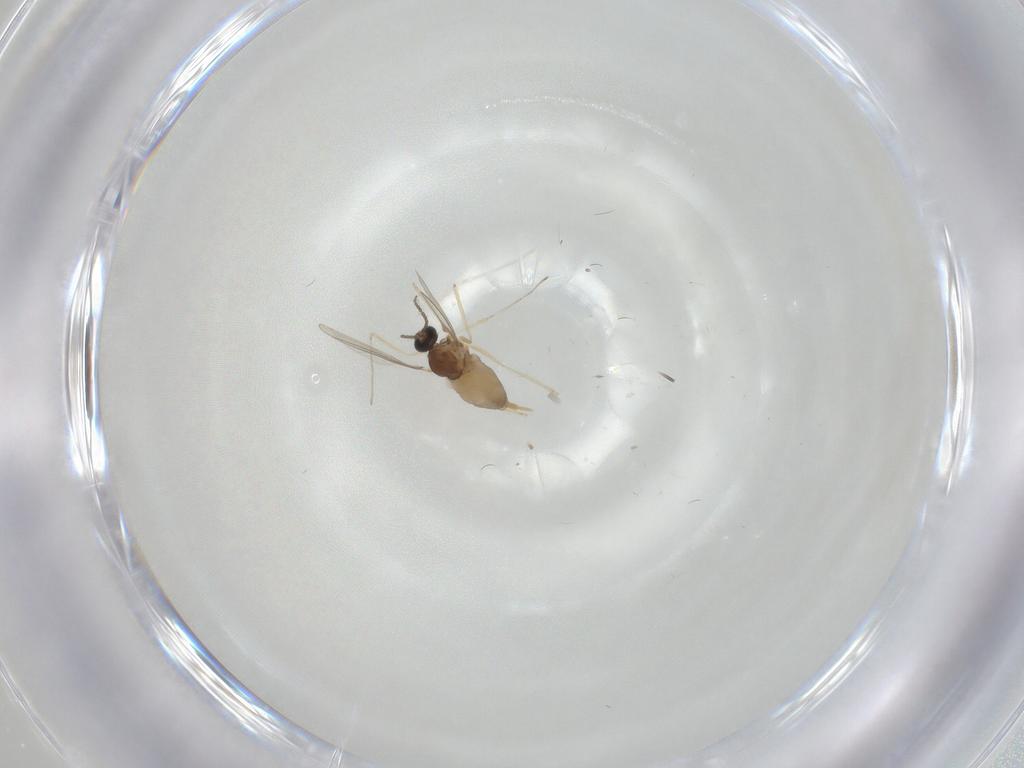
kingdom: Animalia
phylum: Arthropoda
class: Insecta
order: Diptera
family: Cecidomyiidae
